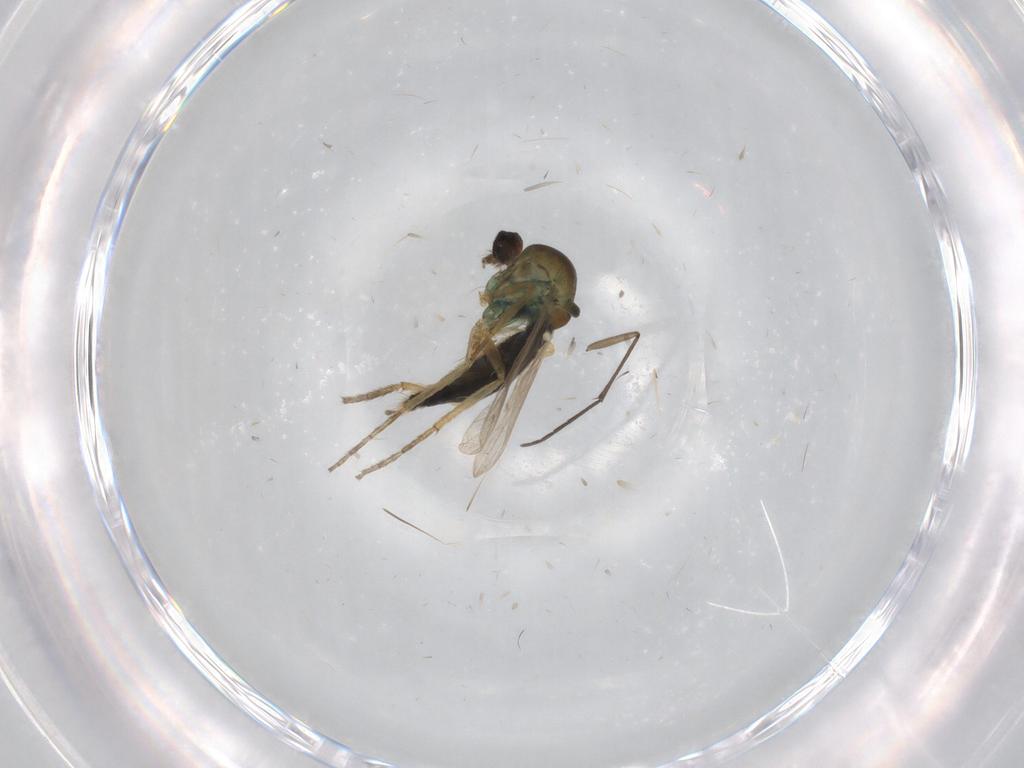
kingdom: Animalia
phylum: Arthropoda
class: Insecta
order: Diptera
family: Ceratopogonidae
